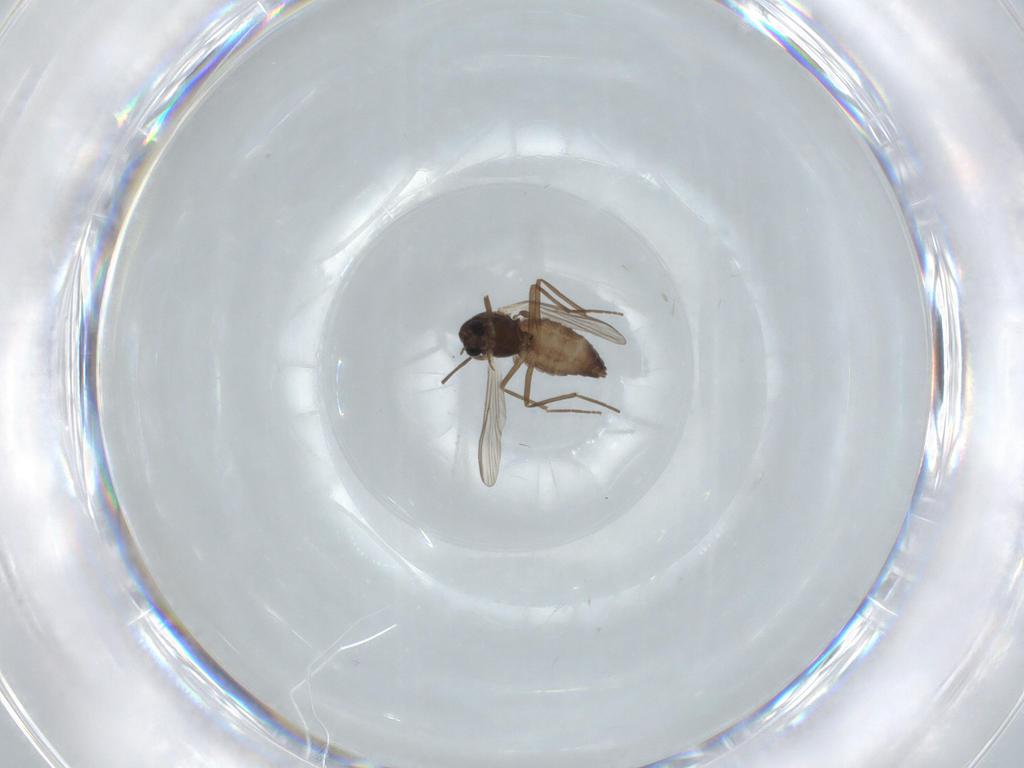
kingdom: Animalia
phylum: Arthropoda
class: Insecta
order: Diptera
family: Chironomidae
